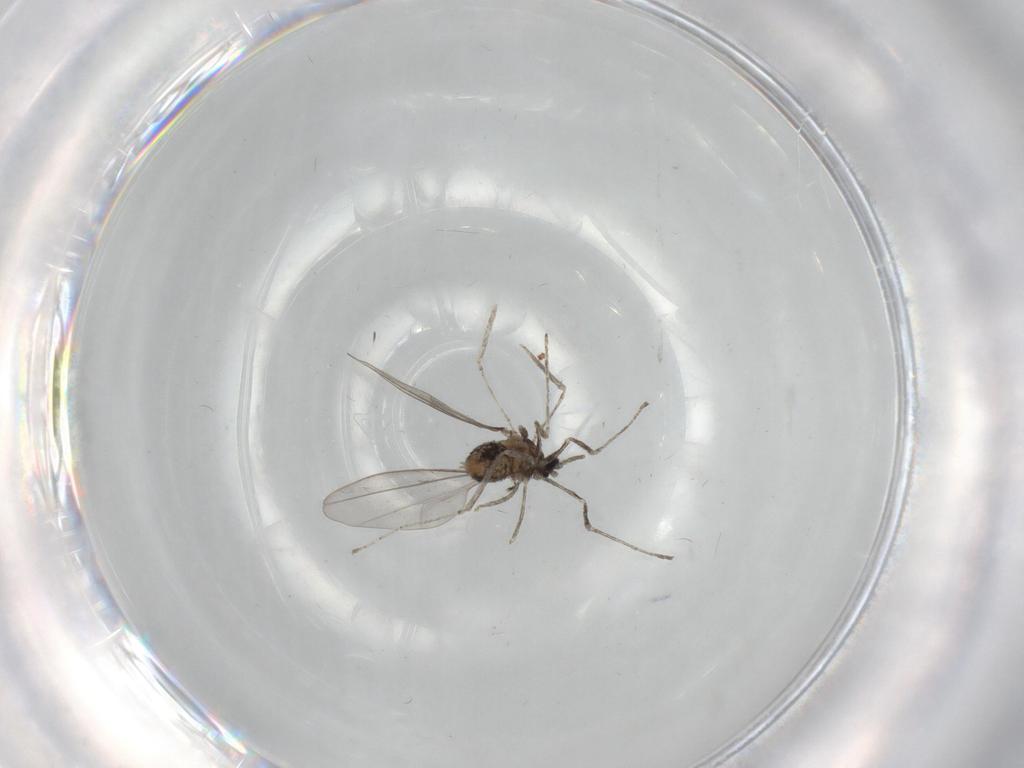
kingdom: Animalia
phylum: Arthropoda
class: Insecta
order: Diptera
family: Cecidomyiidae
